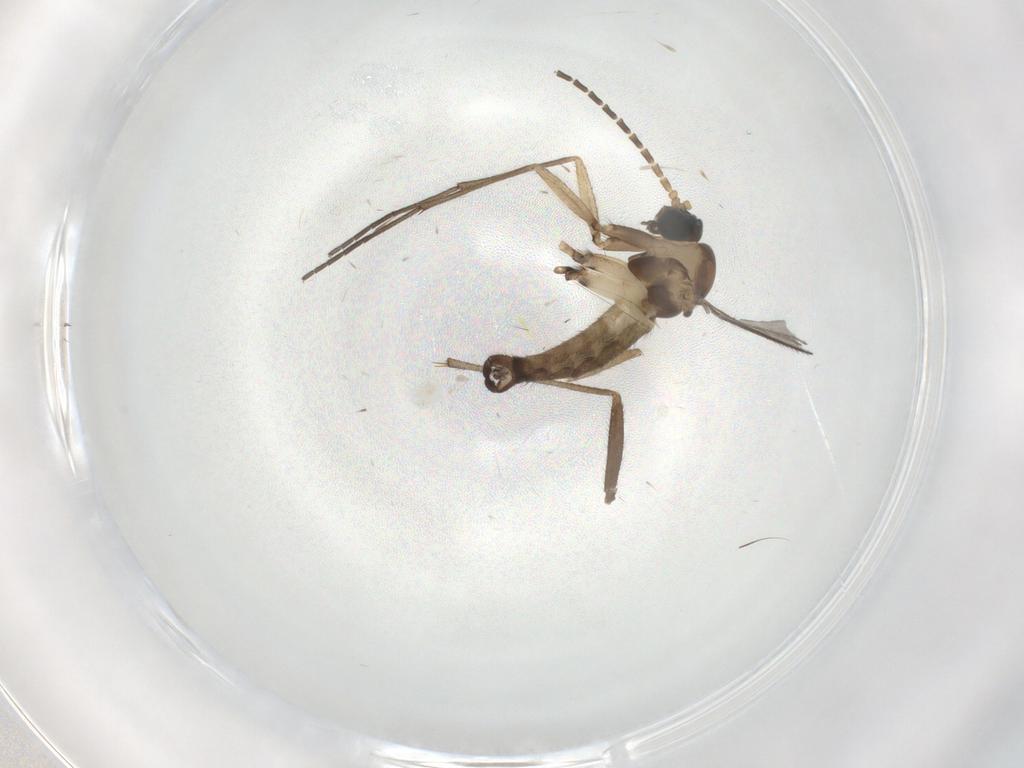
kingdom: Animalia
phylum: Arthropoda
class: Insecta
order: Diptera
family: Sciaridae
